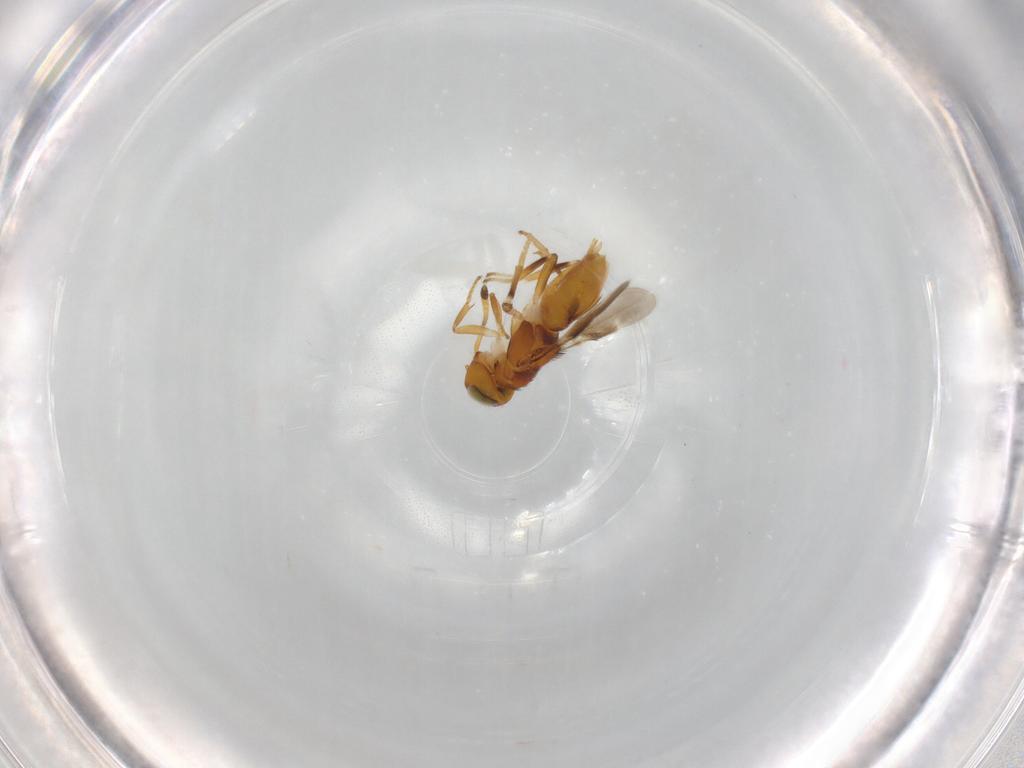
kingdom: Animalia
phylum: Arthropoda
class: Insecta
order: Hymenoptera
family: Encyrtidae
